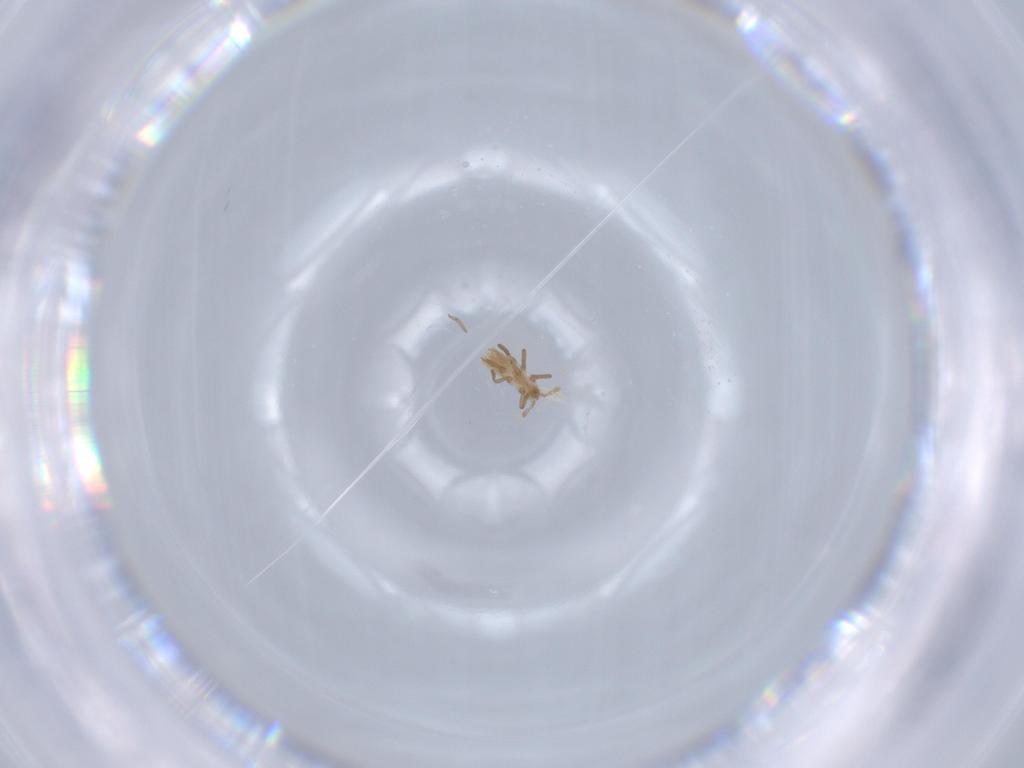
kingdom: Animalia
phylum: Arthropoda
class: Insecta
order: Hemiptera
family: Aphididae
